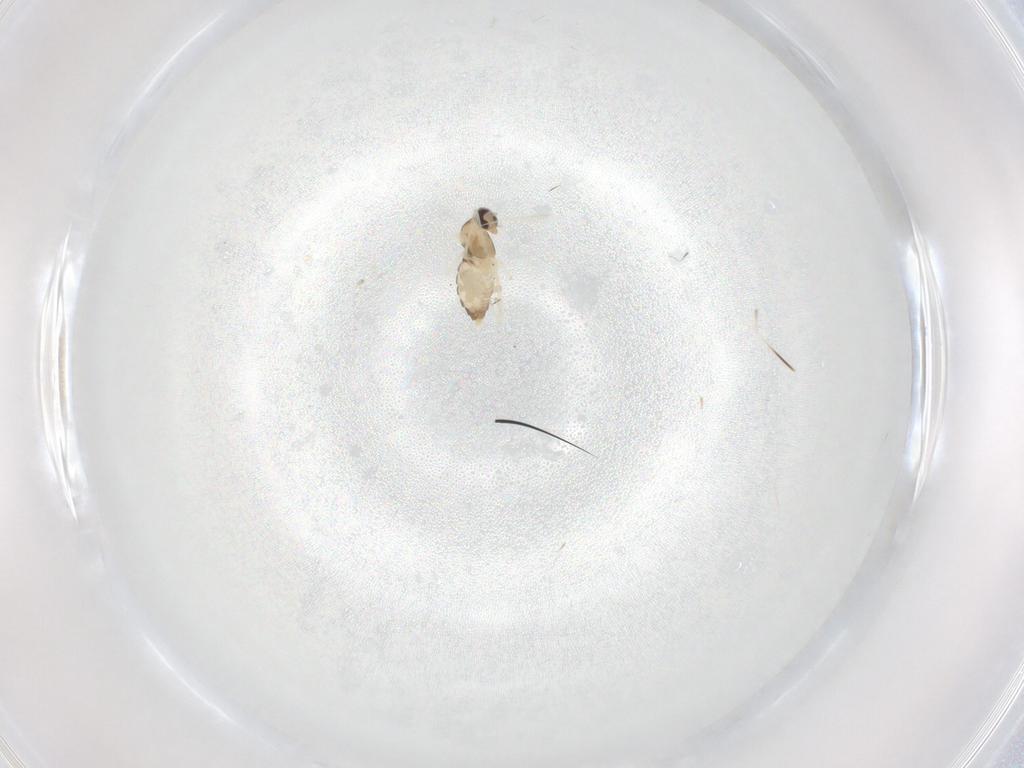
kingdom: Animalia
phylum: Arthropoda
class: Insecta
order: Diptera
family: Cecidomyiidae
